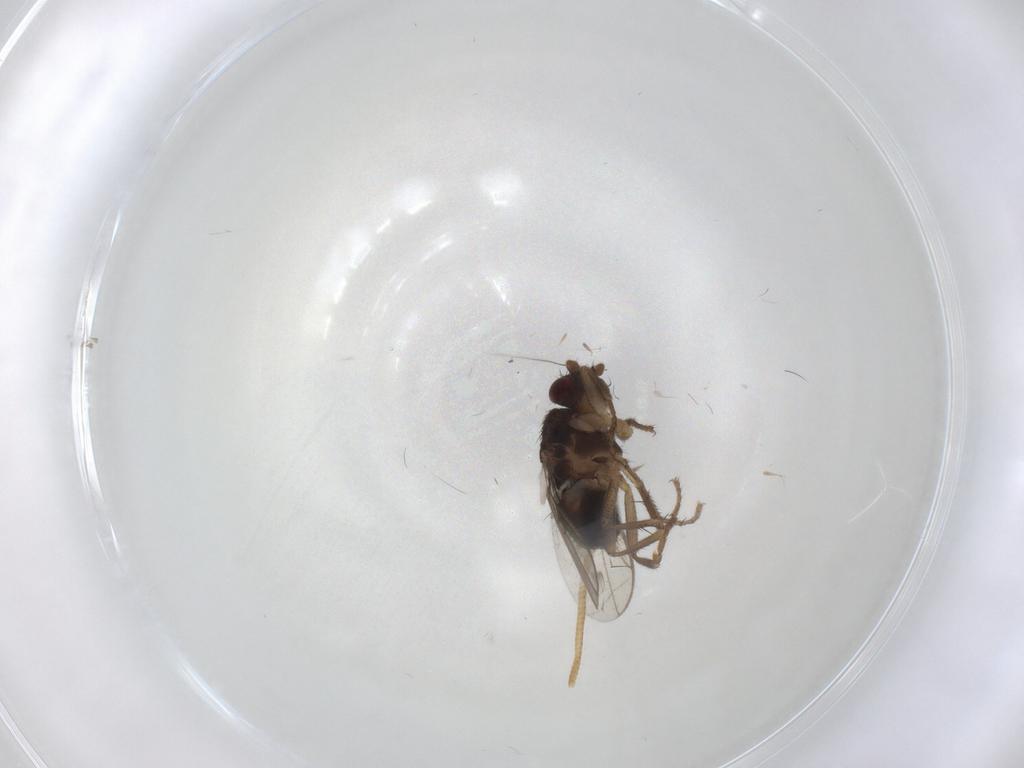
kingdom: Animalia
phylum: Arthropoda
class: Insecta
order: Diptera
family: Sphaeroceridae
